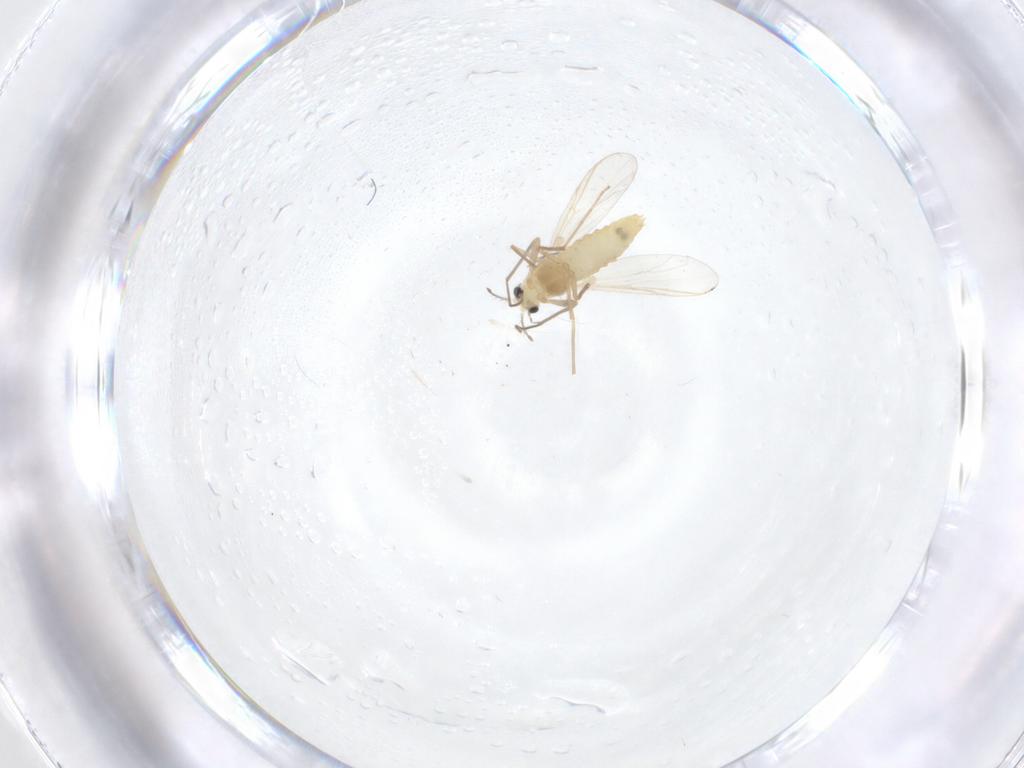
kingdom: Animalia
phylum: Arthropoda
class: Insecta
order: Diptera
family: Chironomidae
